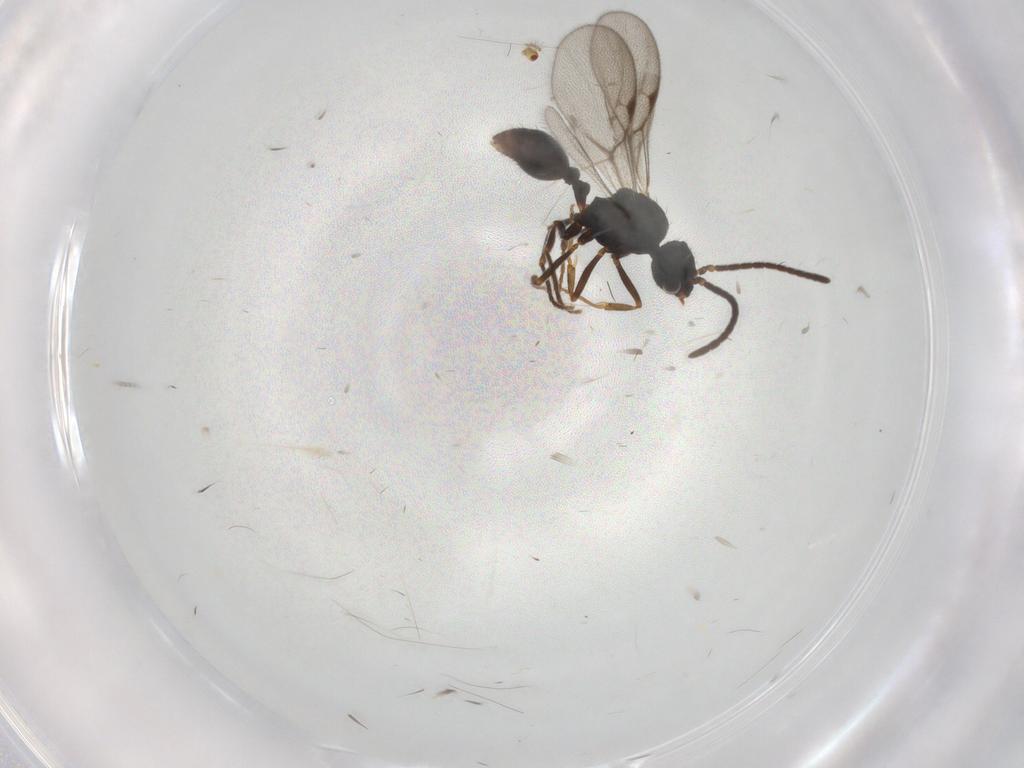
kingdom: Animalia
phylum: Arthropoda
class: Insecta
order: Hymenoptera
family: Formicidae
